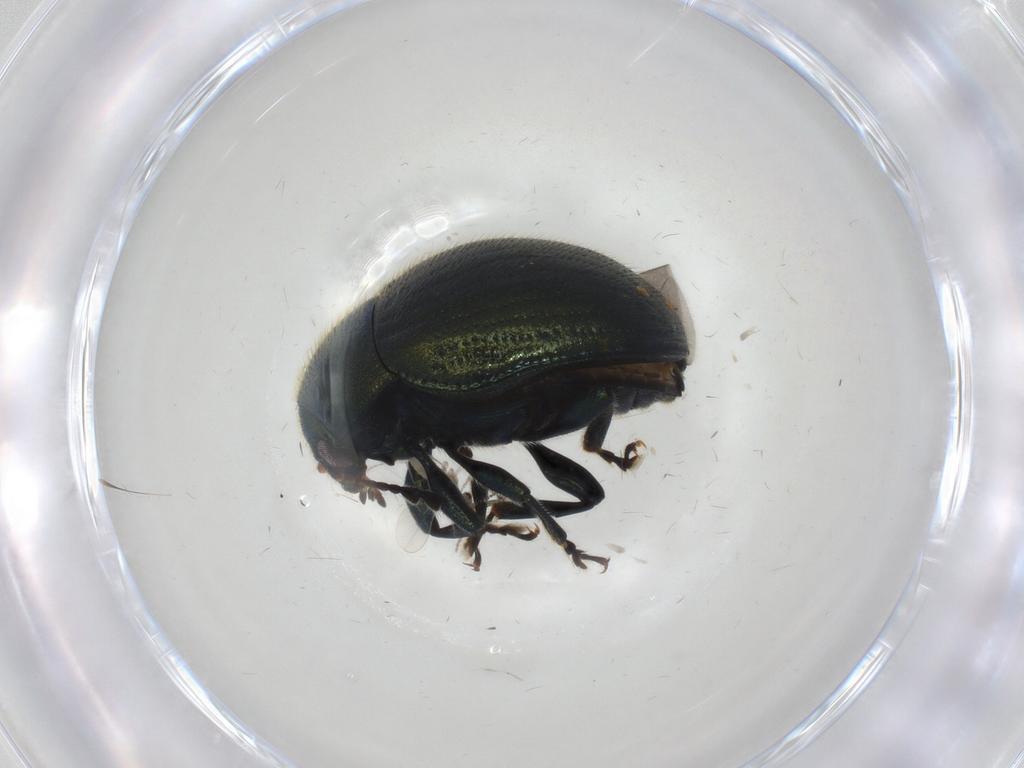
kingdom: Animalia
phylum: Arthropoda
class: Insecta
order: Coleoptera
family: Chrysomelidae
